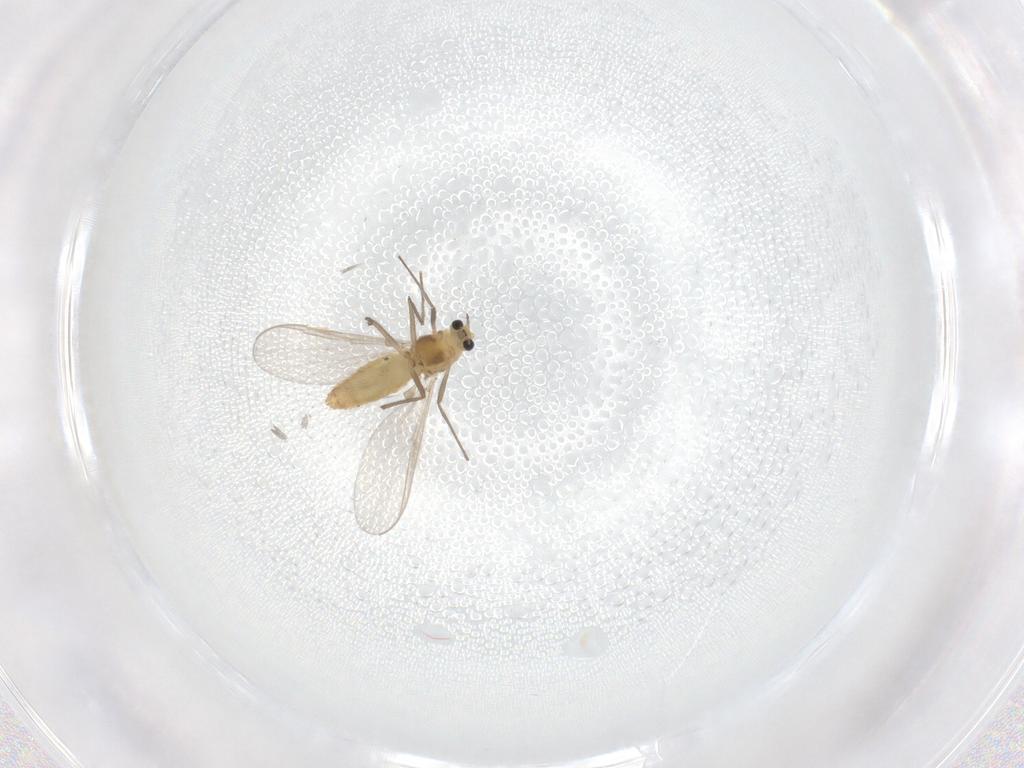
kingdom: Animalia
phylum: Arthropoda
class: Insecta
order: Diptera
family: Chironomidae
